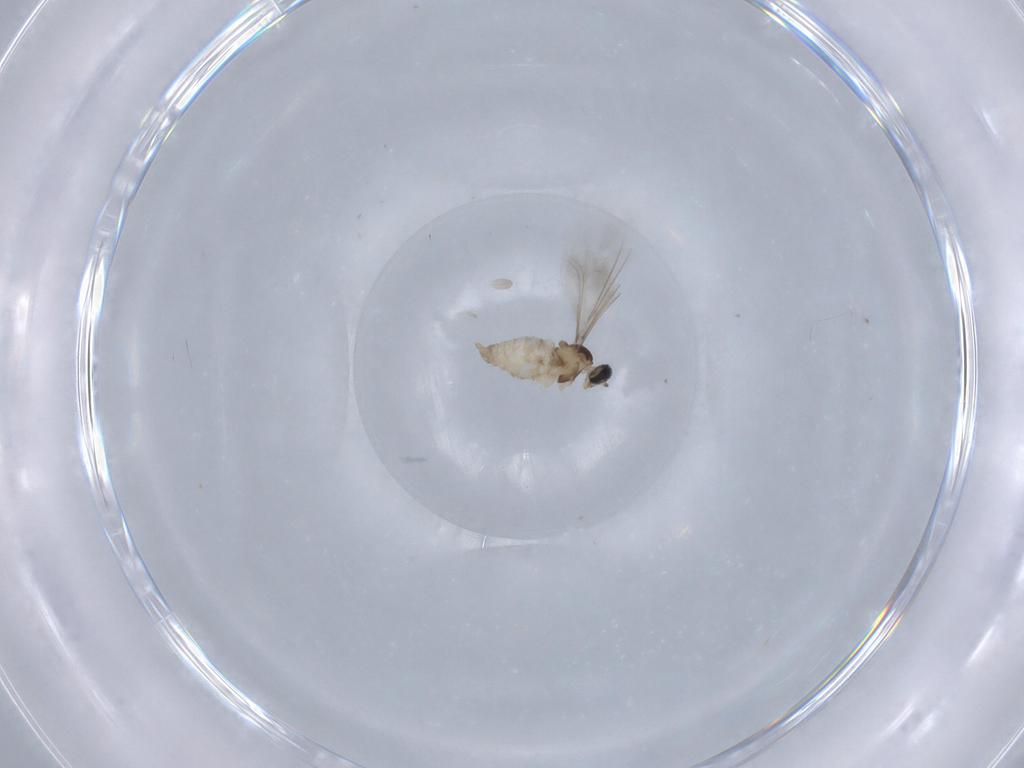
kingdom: Animalia
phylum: Arthropoda
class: Insecta
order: Diptera
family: Cecidomyiidae
